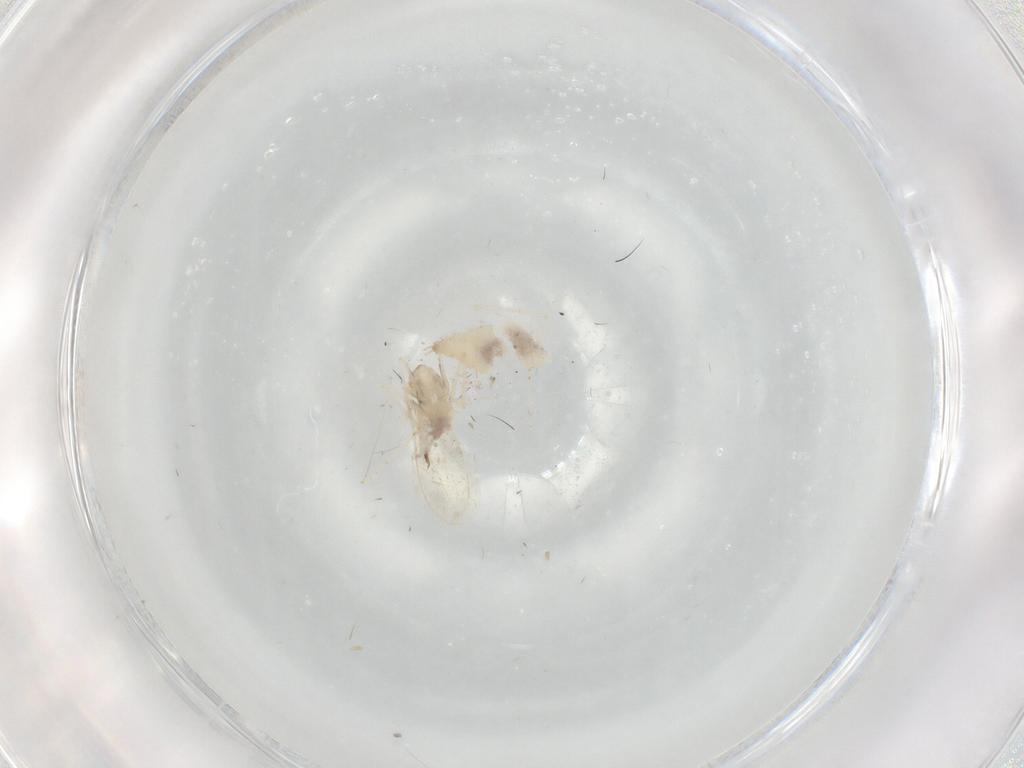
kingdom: Animalia
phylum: Arthropoda
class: Insecta
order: Diptera
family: Cecidomyiidae
